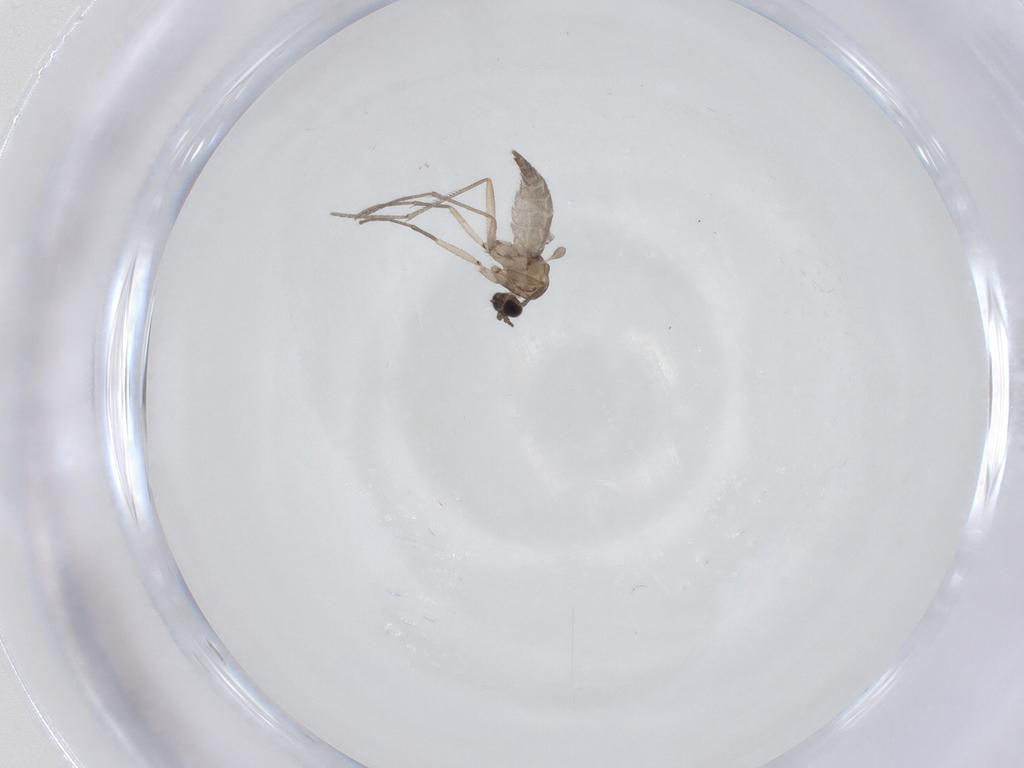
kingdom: Animalia
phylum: Arthropoda
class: Insecta
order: Diptera
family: Sciaridae
